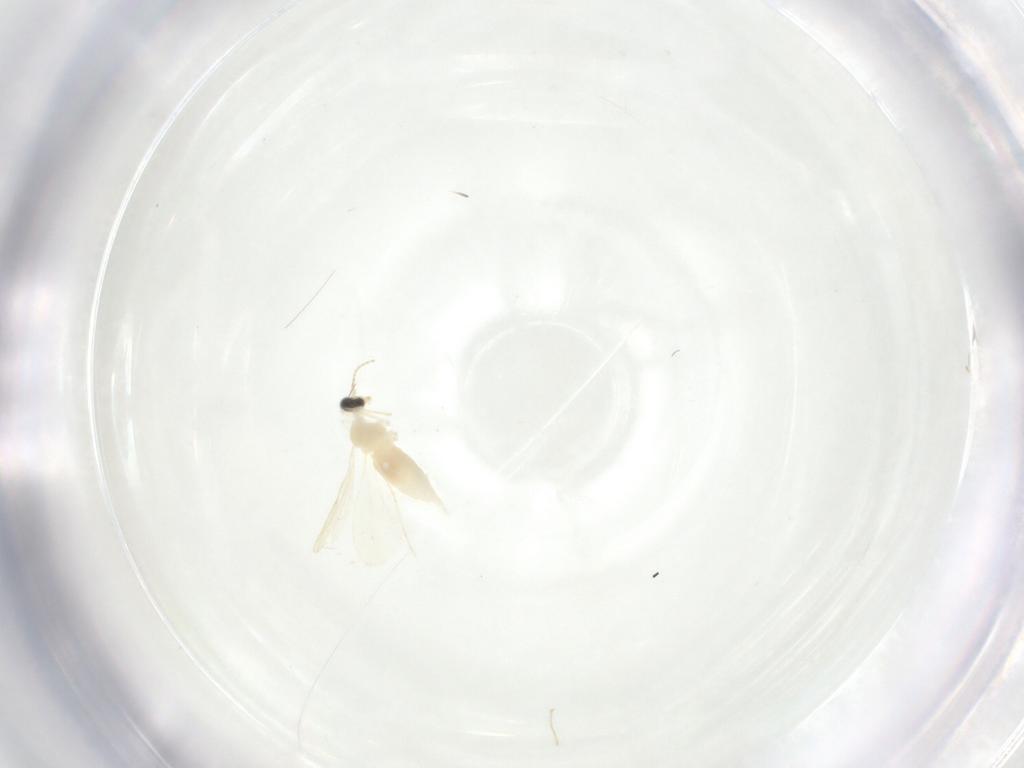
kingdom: Animalia
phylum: Arthropoda
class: Insecta
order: Diptera
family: Cecidomyiidae
